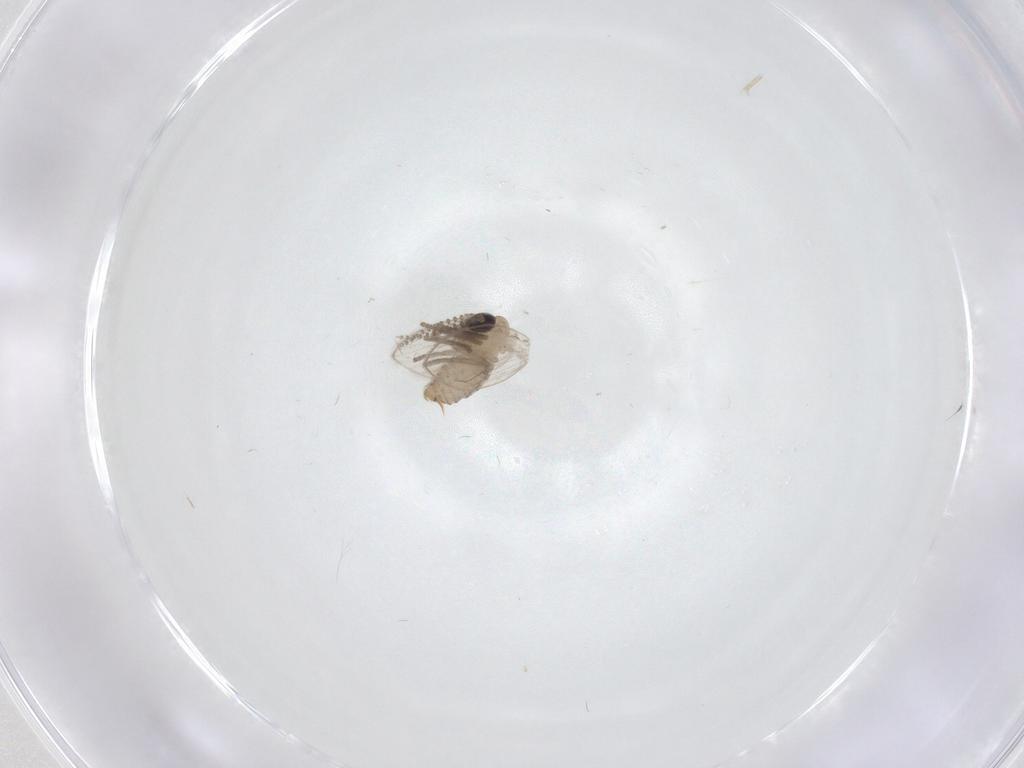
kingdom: Animalia
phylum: Arthropoda
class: Insecta
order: Diptera
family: Psychodidae
